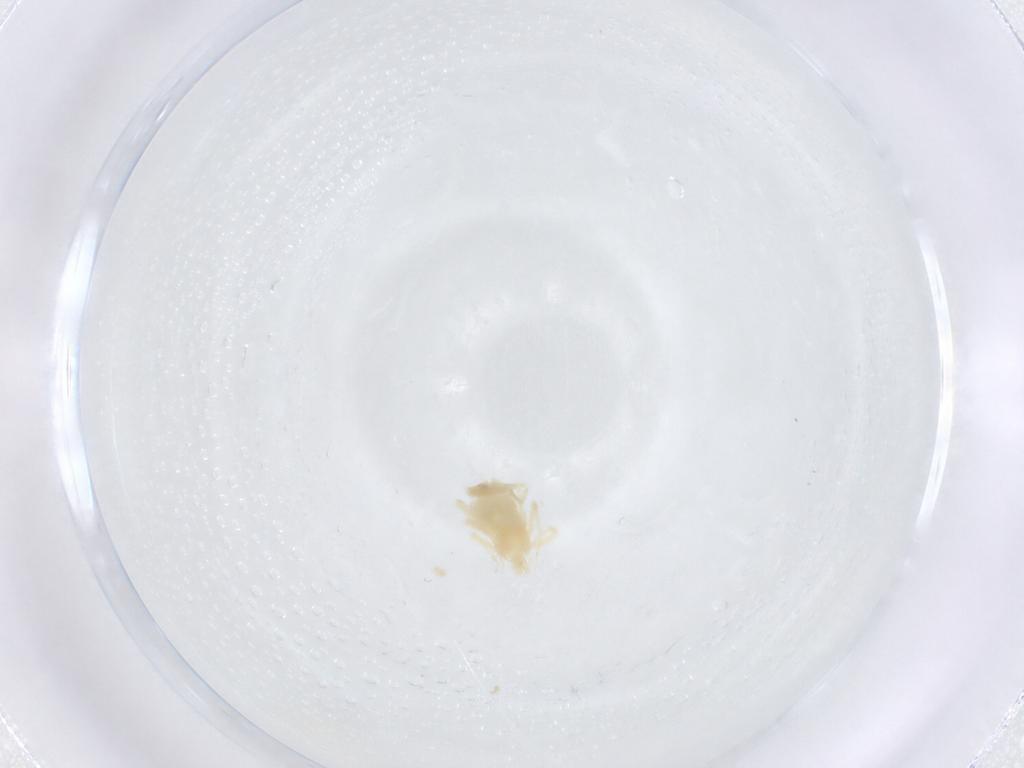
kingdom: Animalia
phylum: Arthropoda
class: Arachnida
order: Trombidiformes
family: Anystidae
